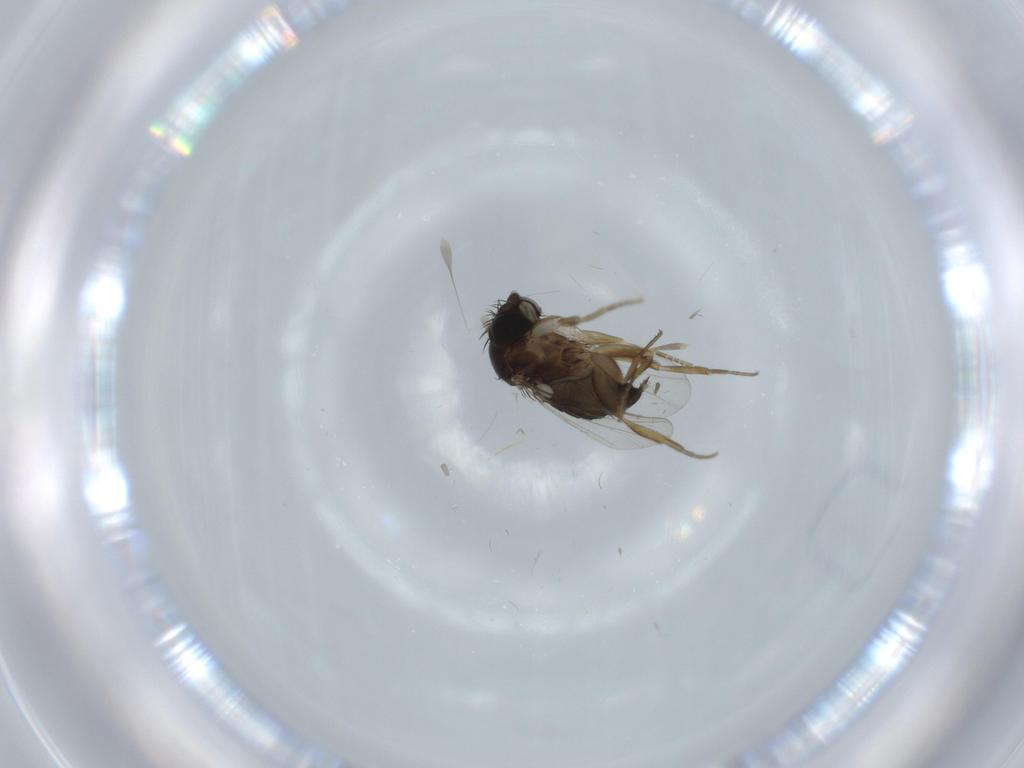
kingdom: Animalia
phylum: Arthropoda
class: Insecta
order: Diptera
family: Phoridae
